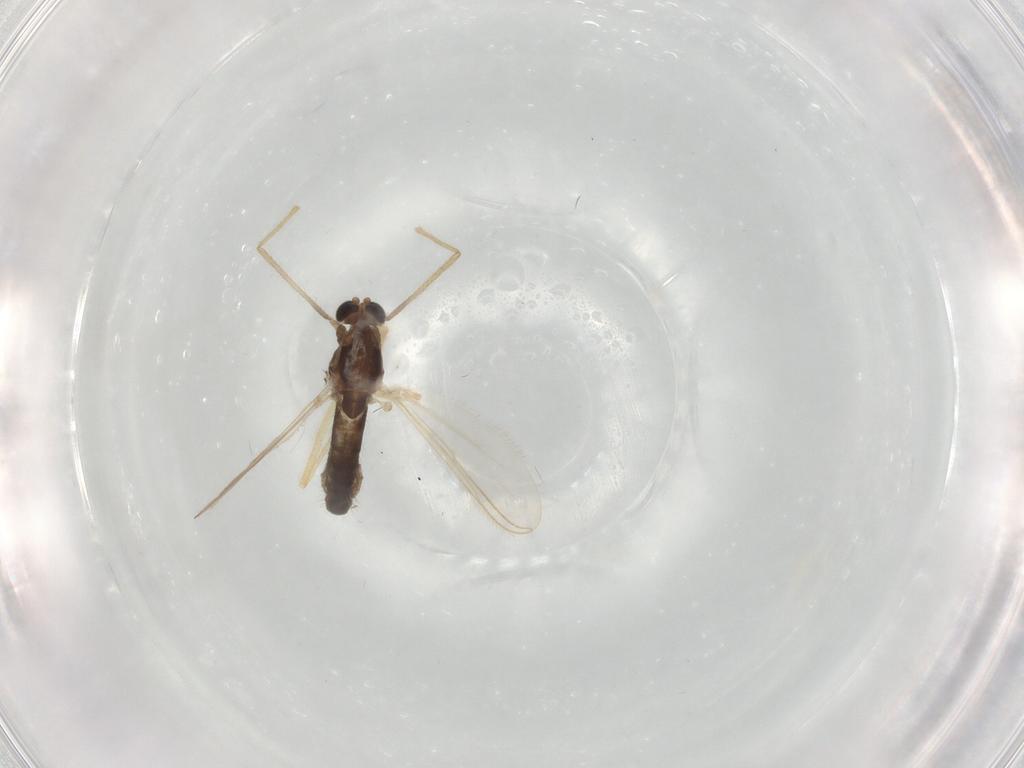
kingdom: Animalia
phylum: Arthropoda
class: Insecta
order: Diptera
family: Chironomidae
